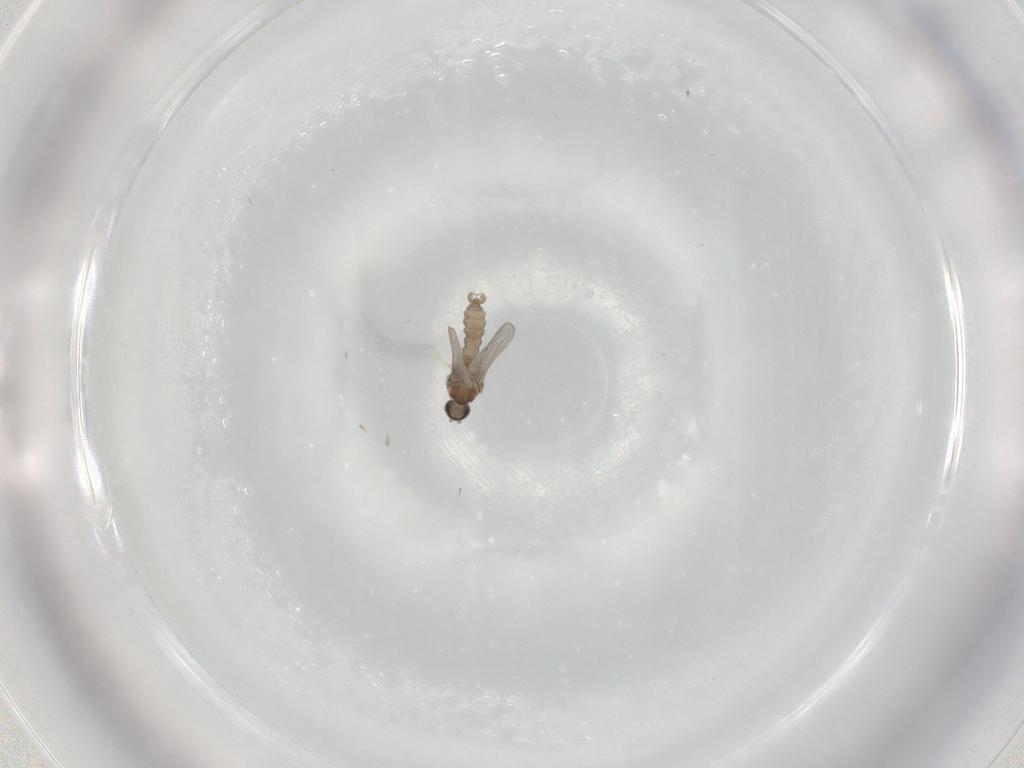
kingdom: Animalia
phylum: Arthropoda
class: Insecta
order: Diptera
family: Cecidomyiidae
